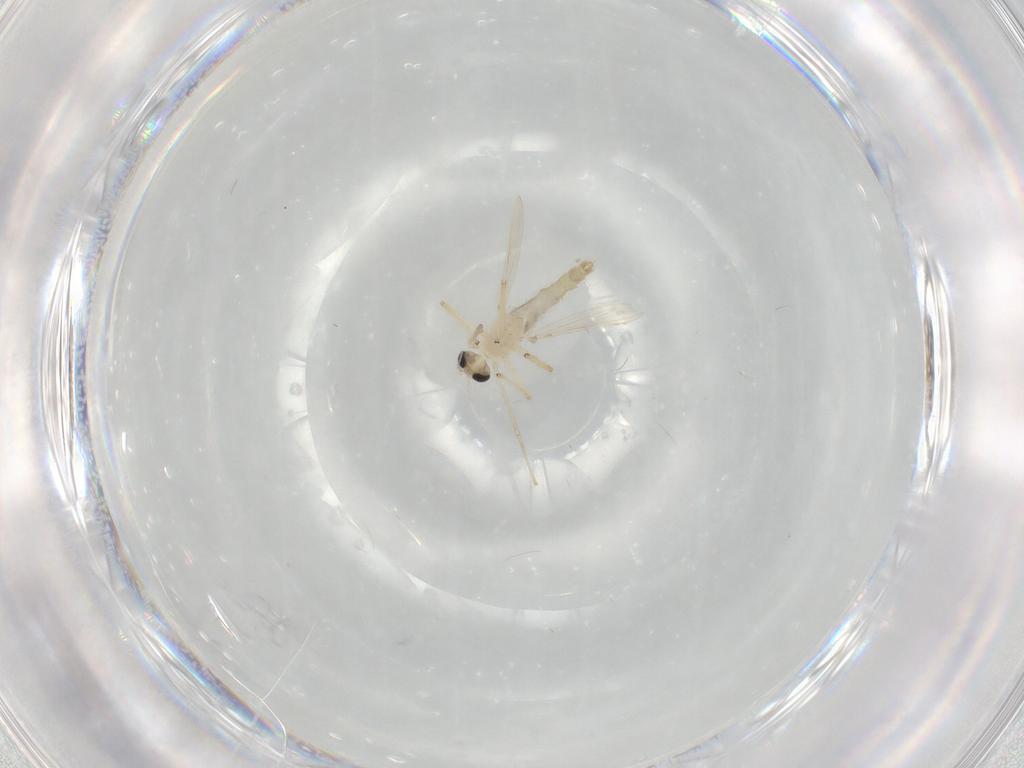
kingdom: Animalia
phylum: Arthropoda
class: Insecta
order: Diptera
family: Chironomidae
